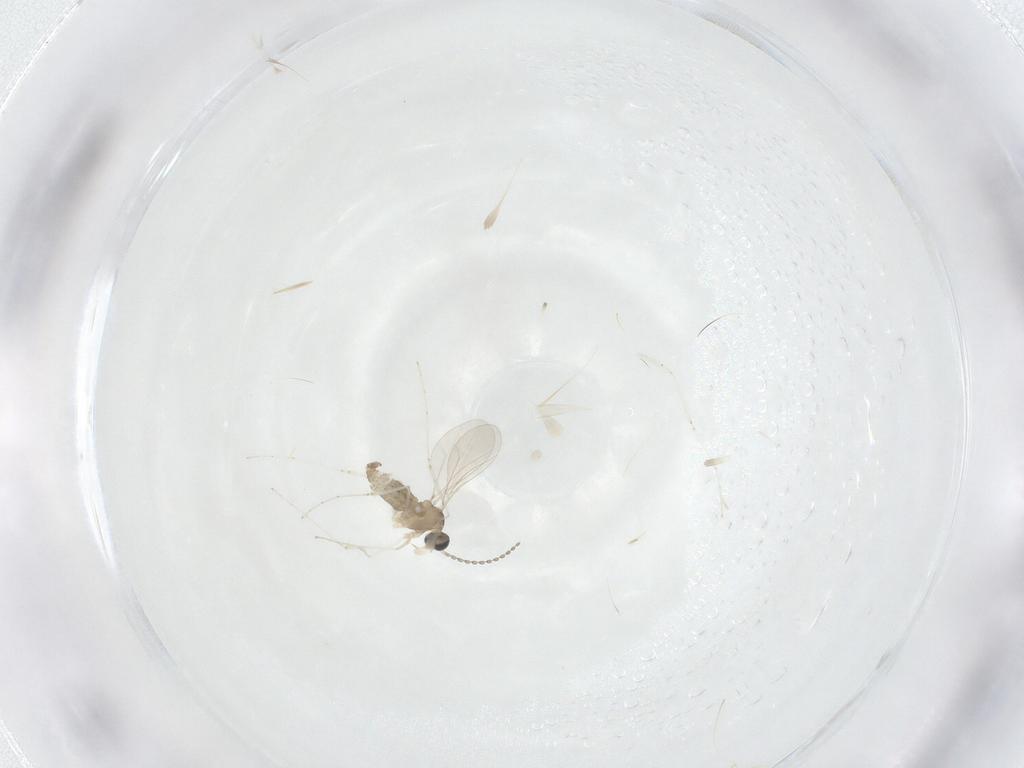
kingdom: Animalia
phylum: Arthropoda
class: Insecta
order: Diptera
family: Cecidomyiidae
